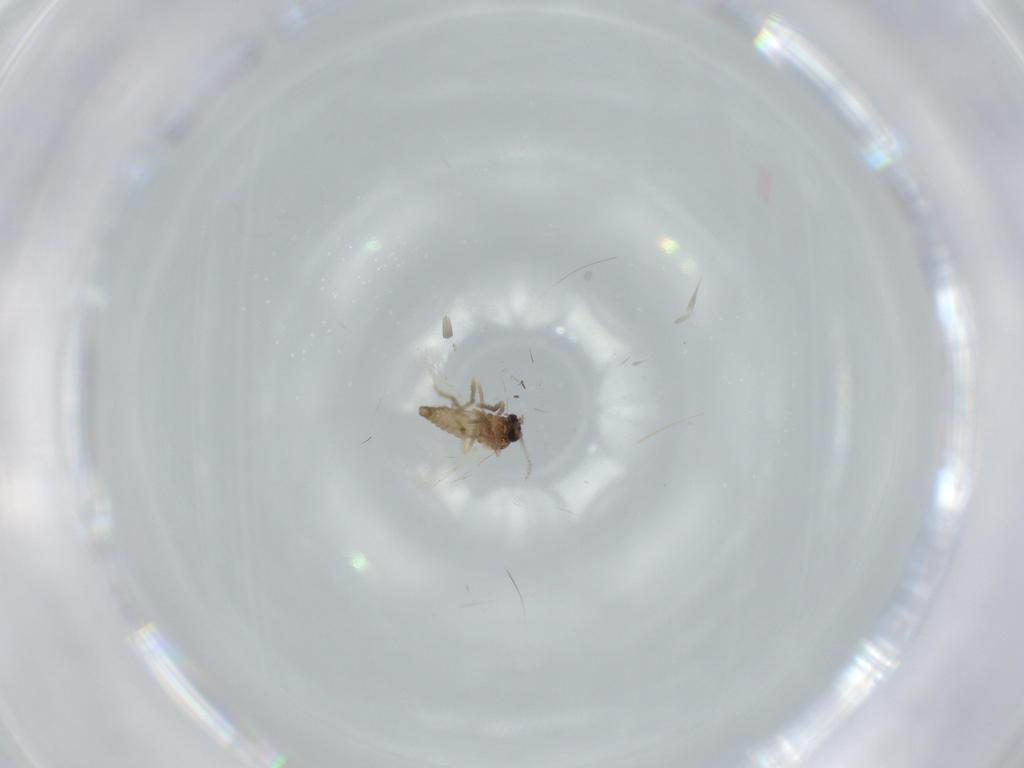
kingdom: Animalia
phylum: Arthropoda
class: Insecta
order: Diptera
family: Ceratopogonidae
